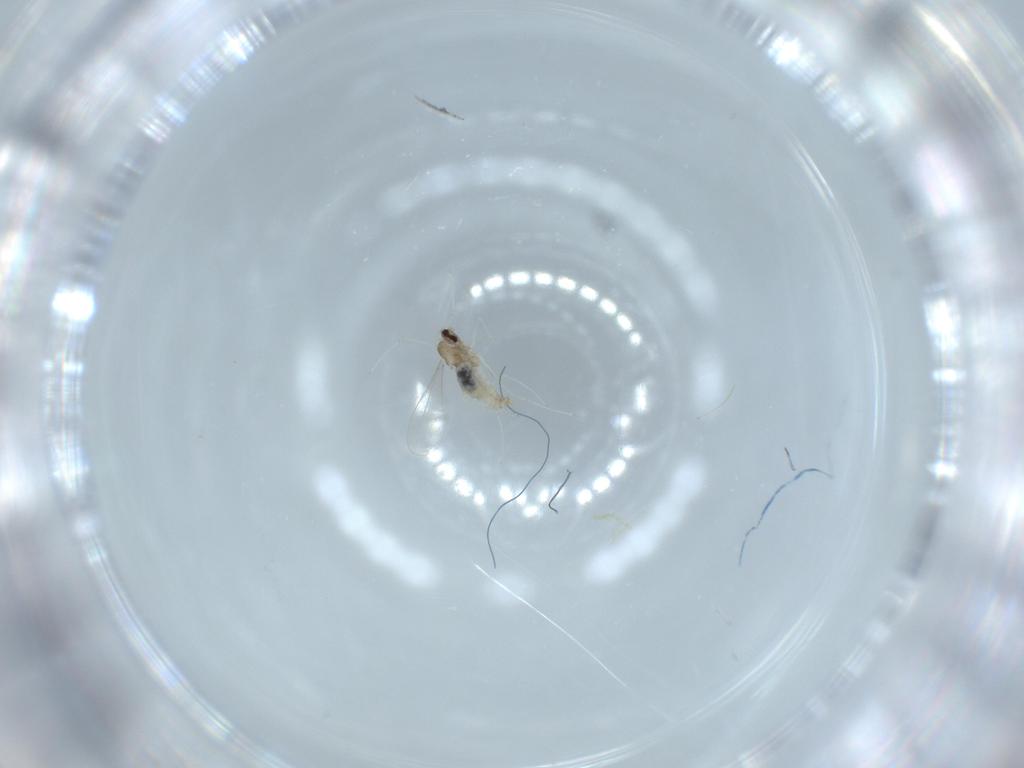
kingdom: Animalia
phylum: Arthropoda
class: Insecta
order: Diptera
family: Cecidomyiidae
